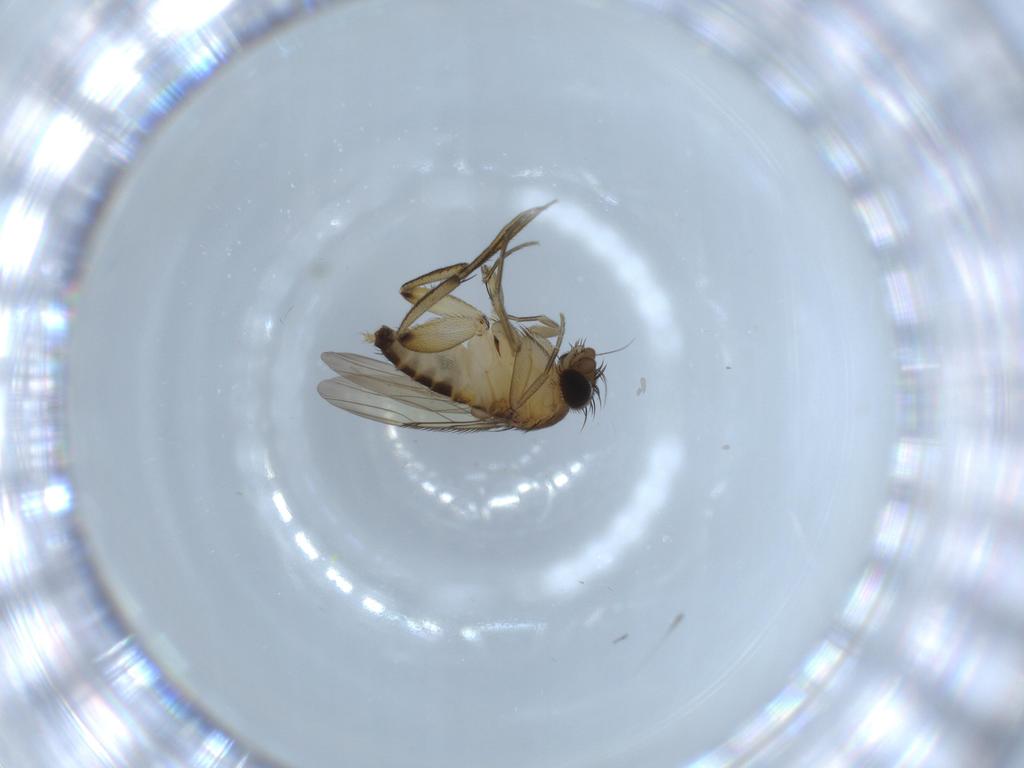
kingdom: Animalia
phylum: Arthropoda
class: Insecta
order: Diptera
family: Phoridae
